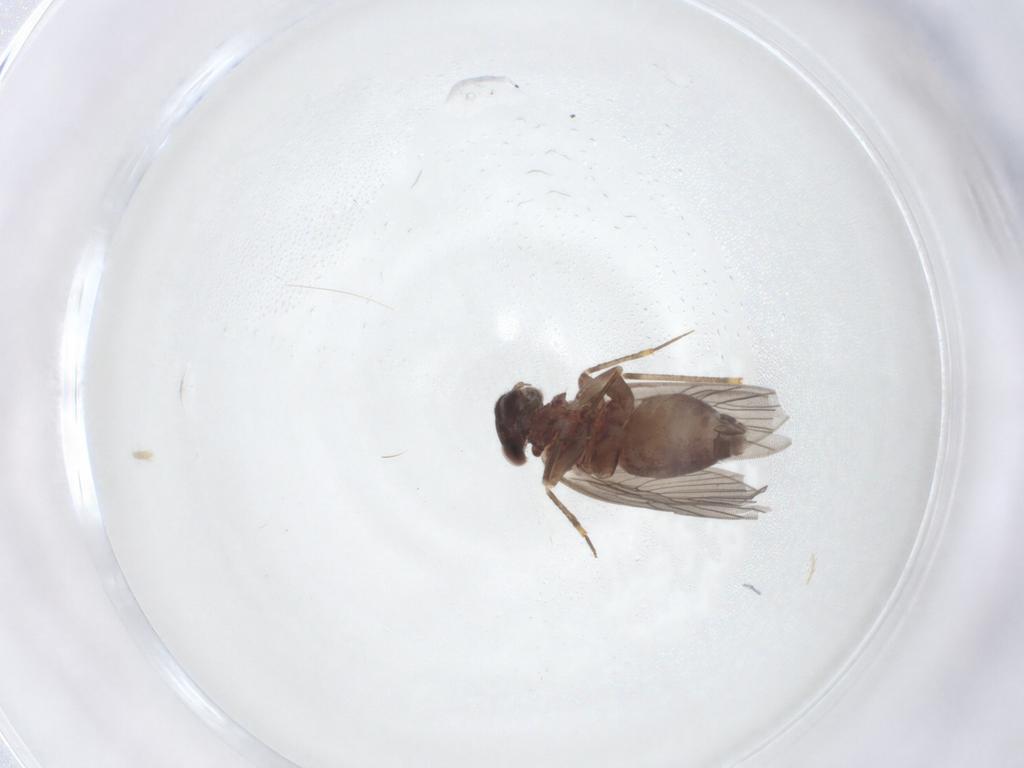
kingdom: Animalia
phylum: Arthropoda
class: Insecta
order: Psocodea
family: Lepidopsocidae
